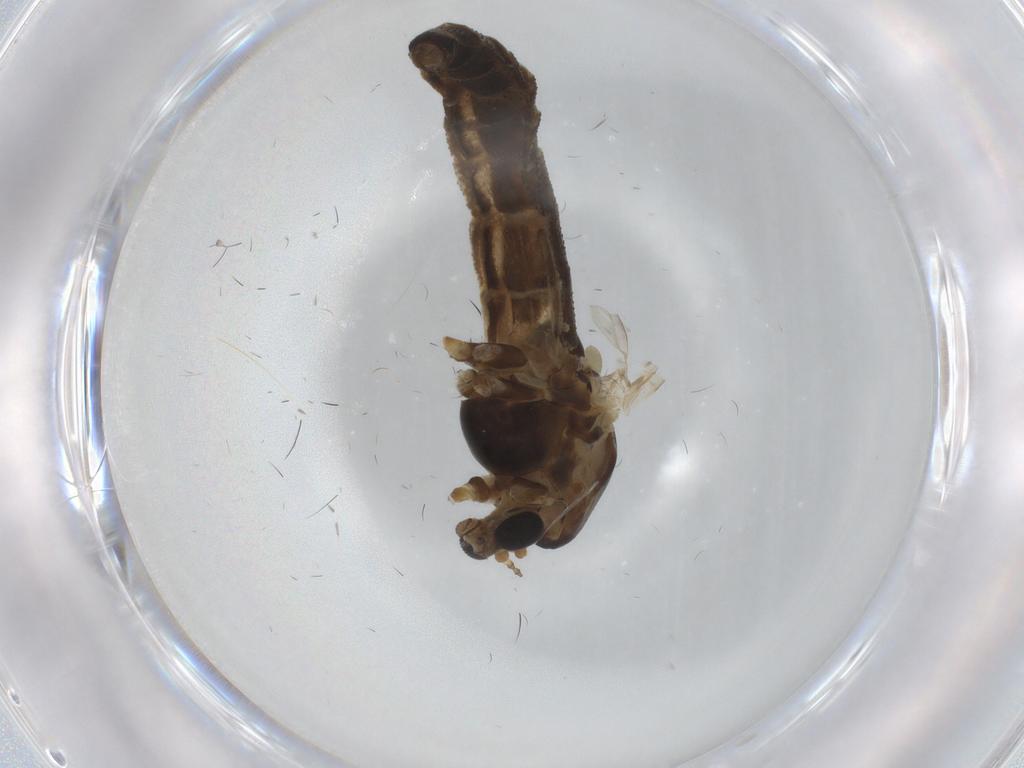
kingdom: Animalia
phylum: Arthropoda
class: Insecta
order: Diptera
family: Chironomidae
